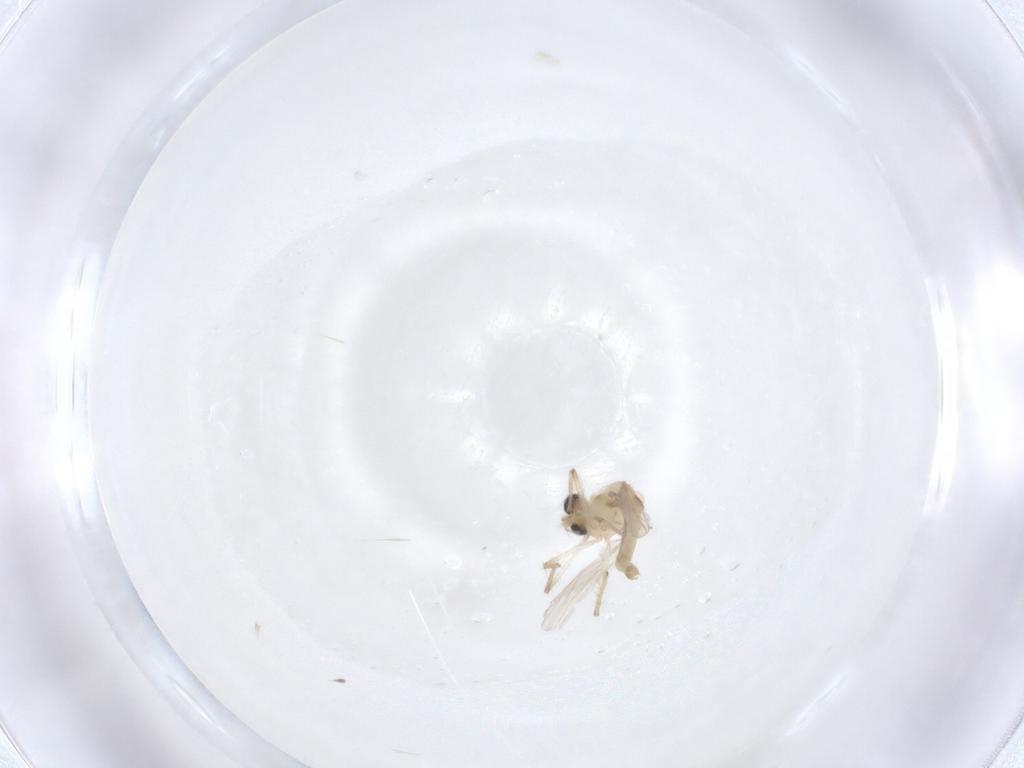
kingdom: Animalia
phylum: Arthropoda
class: Insecta
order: Diptera
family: Chironomidae
